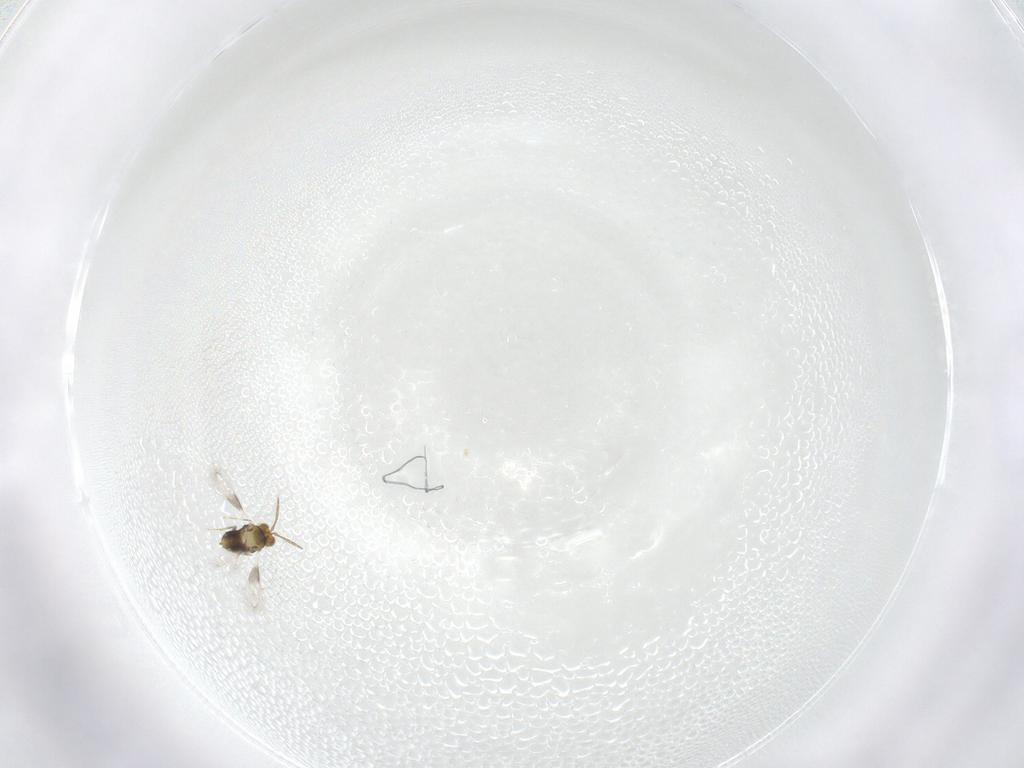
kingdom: Animalia
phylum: Arthropoda
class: Insecta
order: Hymenoptera
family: Aphelinidae
